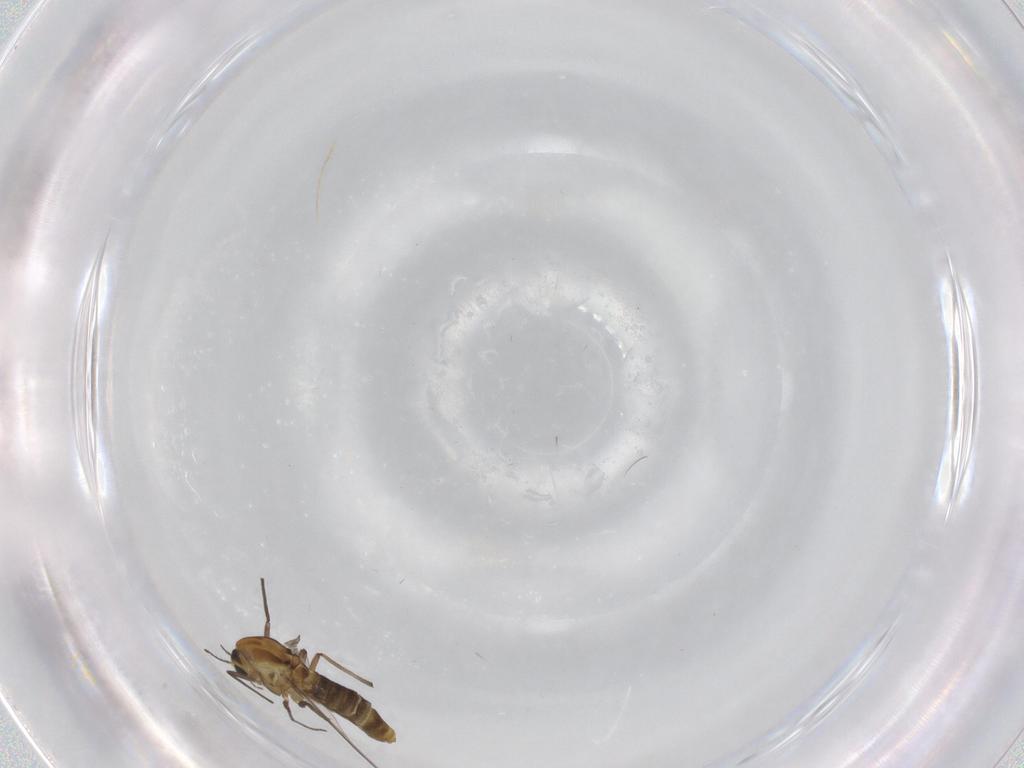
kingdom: Animalia
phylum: Arthropoda
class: Insecta
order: Diptera
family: Chironomidae
